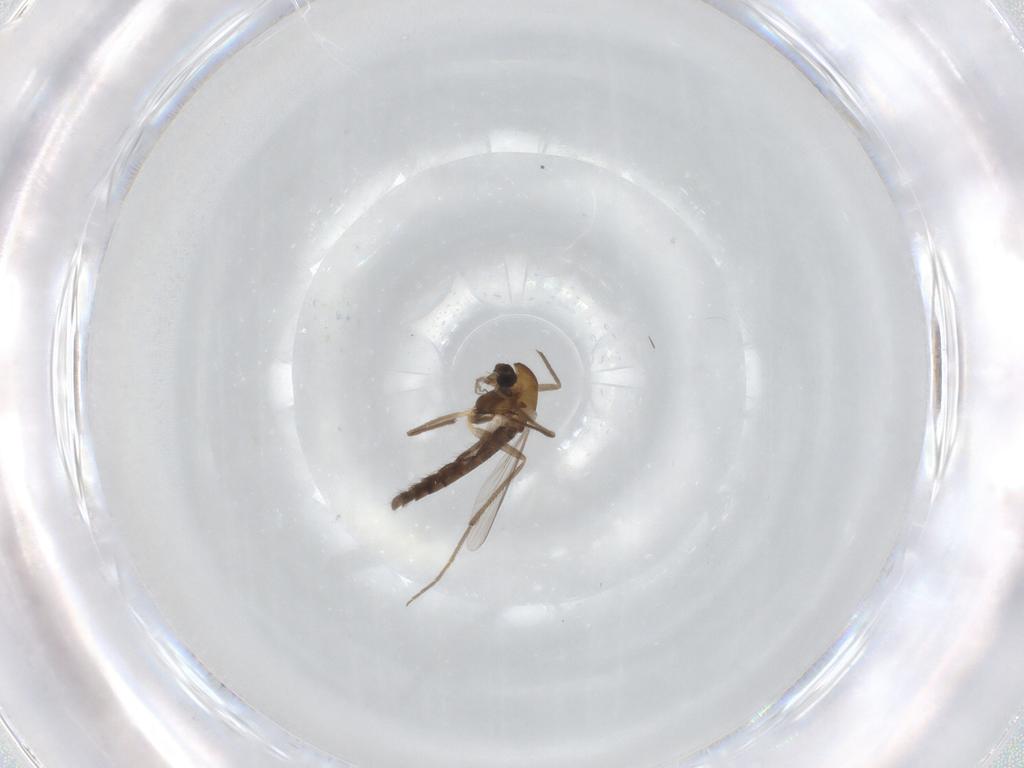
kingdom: Animalia
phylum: Arthropoda
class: Insecta
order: Diptera
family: Chironomidae
